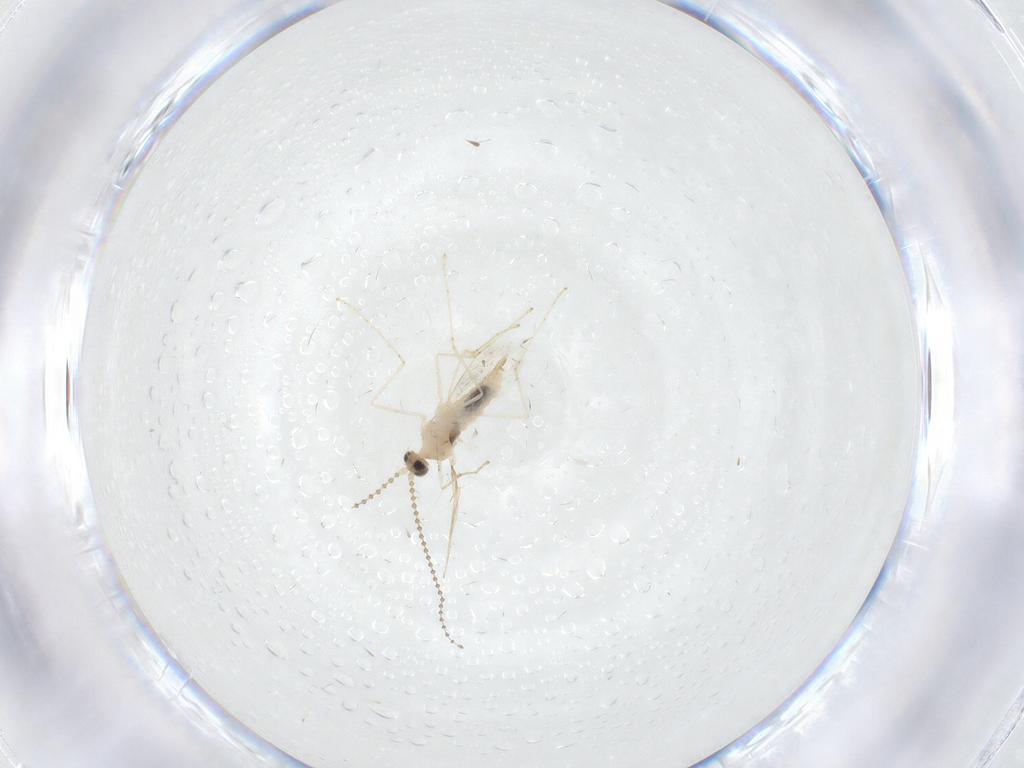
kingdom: Animalia
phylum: Arthropoda
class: Insecta
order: Diptera
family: Cecidomyiidae
